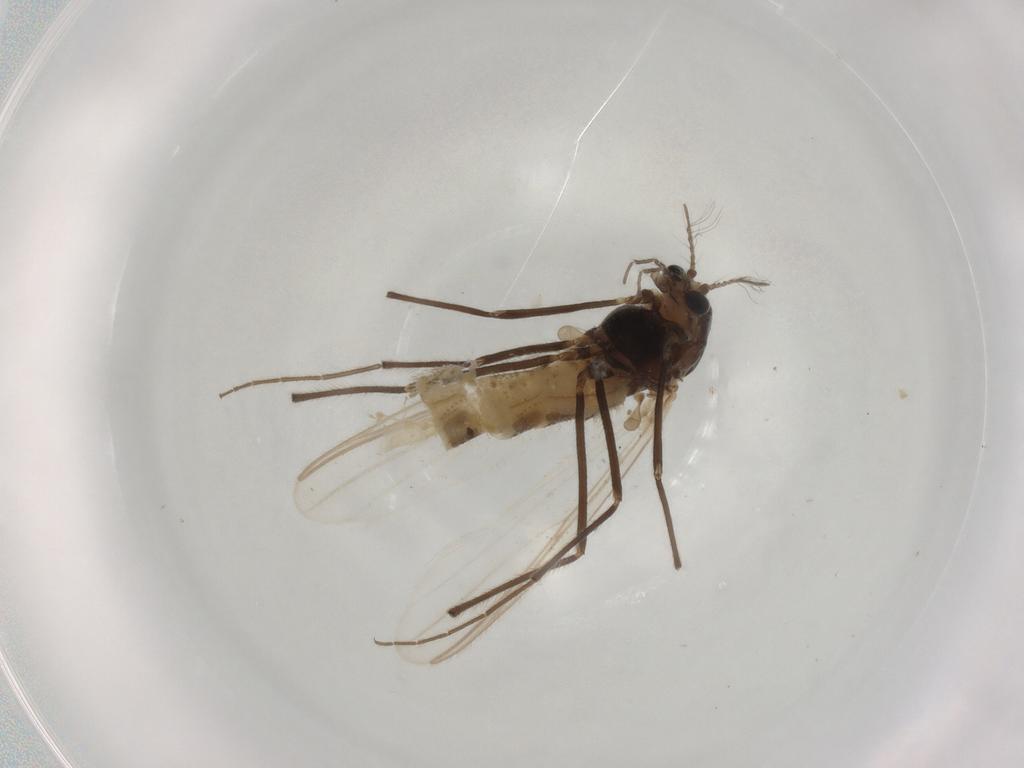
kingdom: Animalia
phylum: Arthropoda
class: Insecta
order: Diptera
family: Chironomidae
